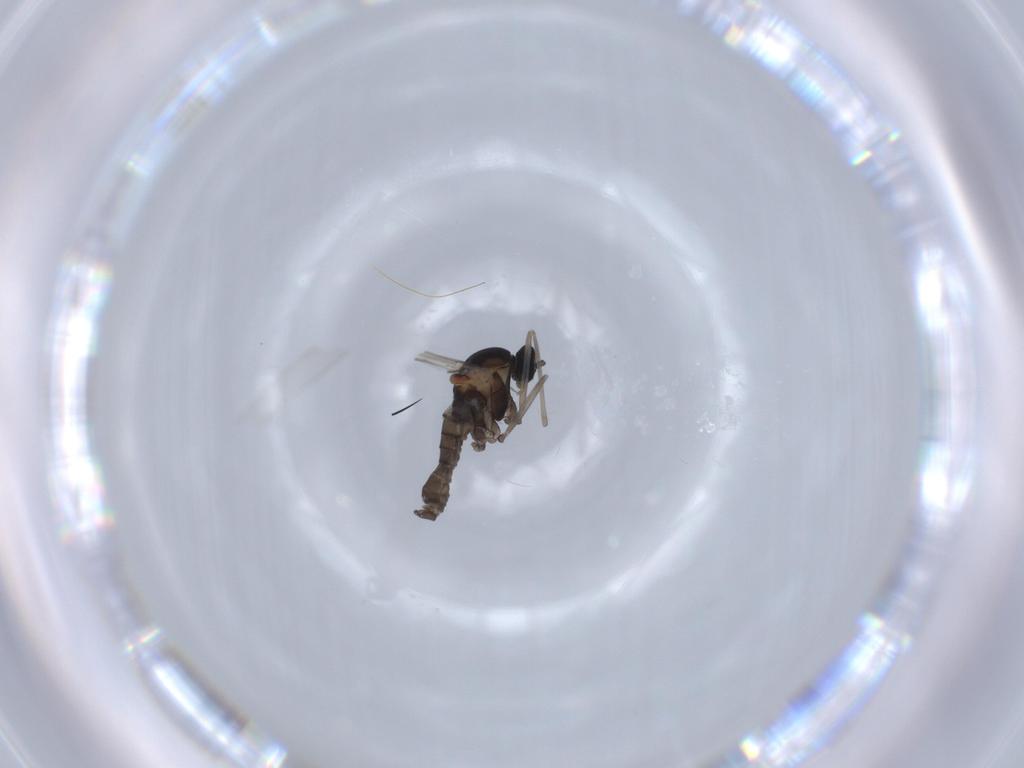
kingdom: Animalia
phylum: Arthropoda
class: Insecta
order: Diptera
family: Cecidomyiidae
